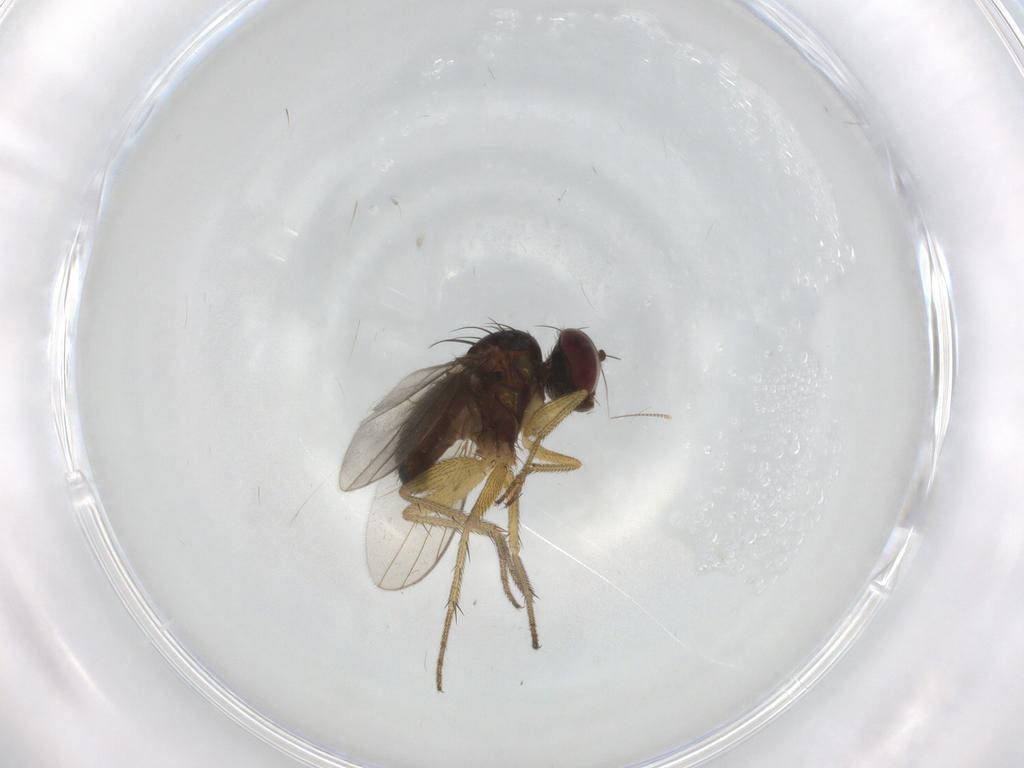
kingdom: Animalia
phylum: Arthropoda
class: Insecta
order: Diptera
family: Dolichopodidae
